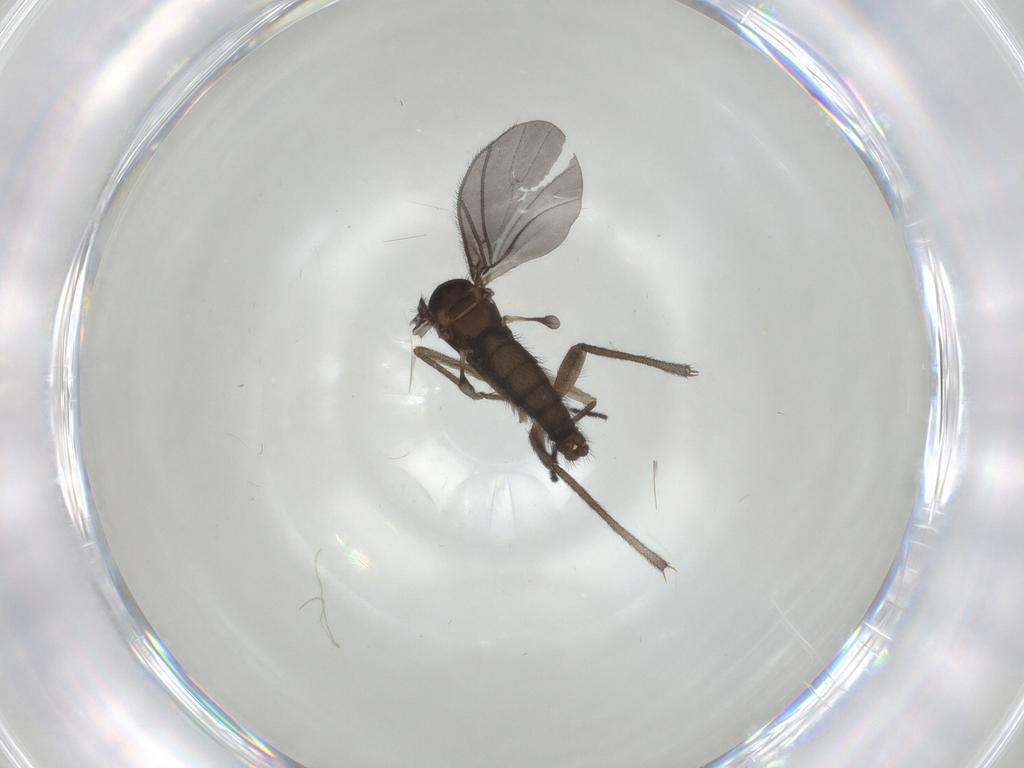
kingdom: Animalia
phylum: Arthropoda
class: Insecta
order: Diptera
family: Sciaridae
